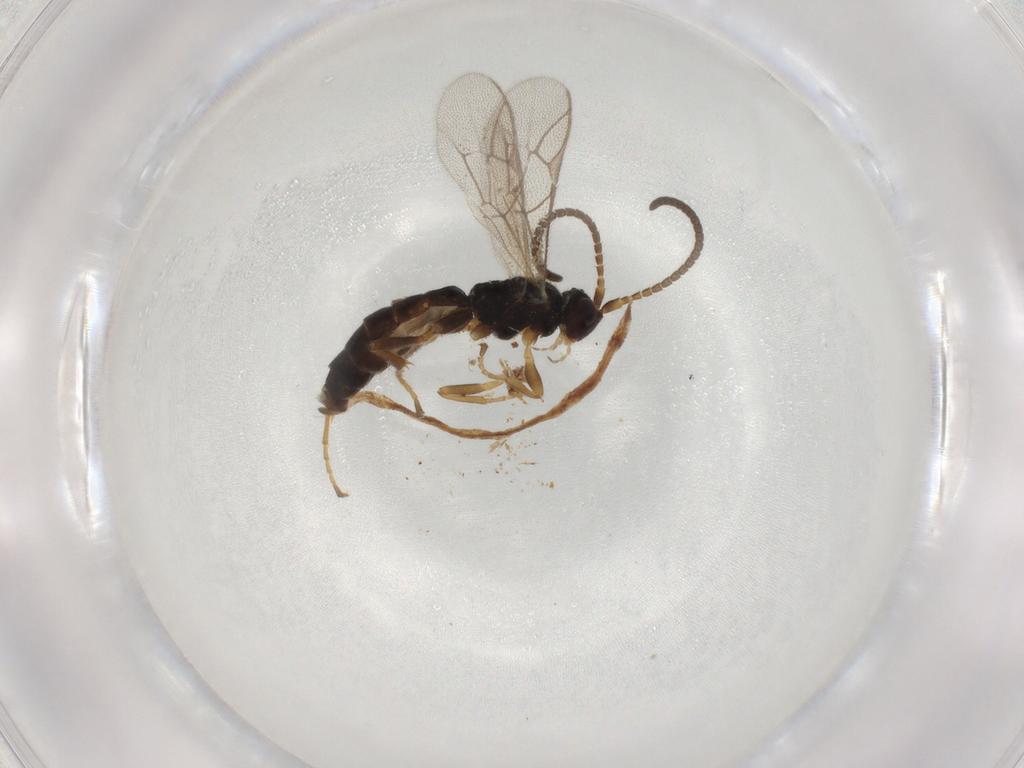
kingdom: Animalia
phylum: Arthropoda
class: Insecta
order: Hymenoptera
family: Ichneumonidae
